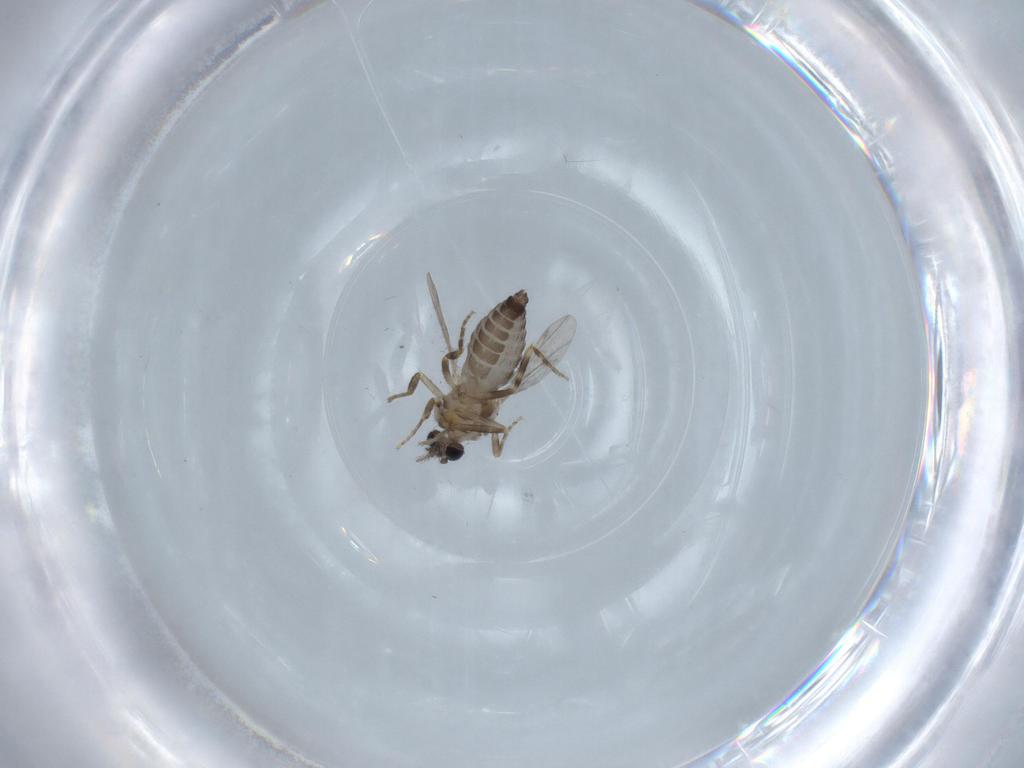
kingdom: Animalia
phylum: Arthropoda
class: Insecta
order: Diptera
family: Ceratopogonidae
